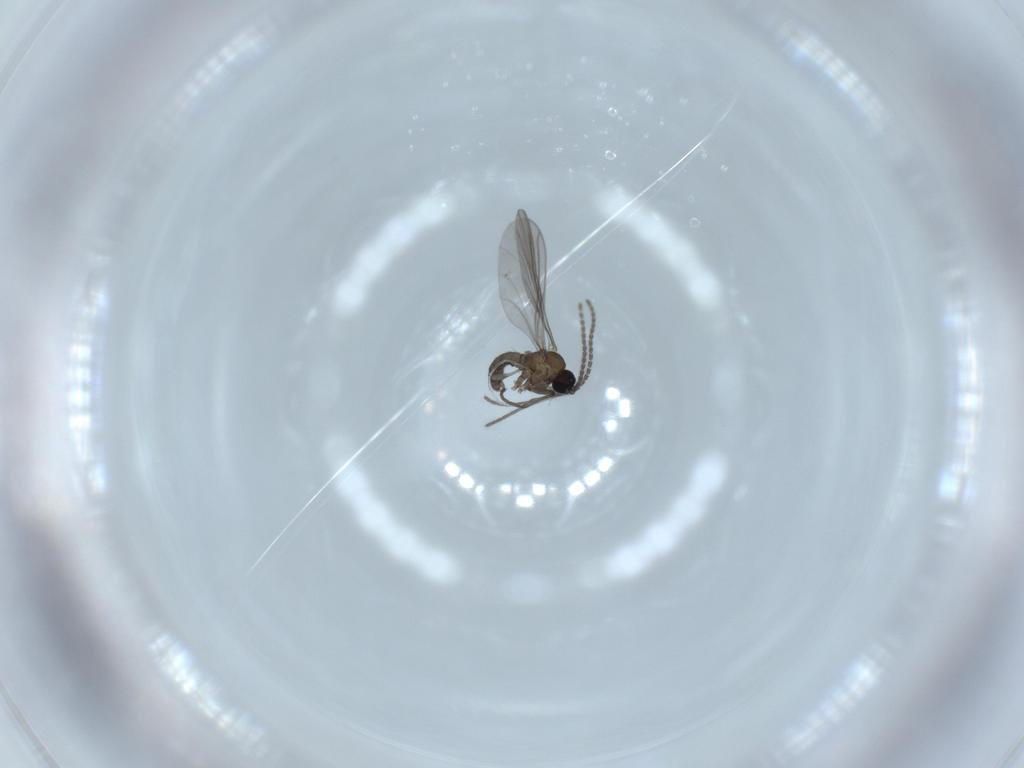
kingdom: Animalia
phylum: Arthropoda
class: Insecta
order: Diptera
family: Sciaridae
